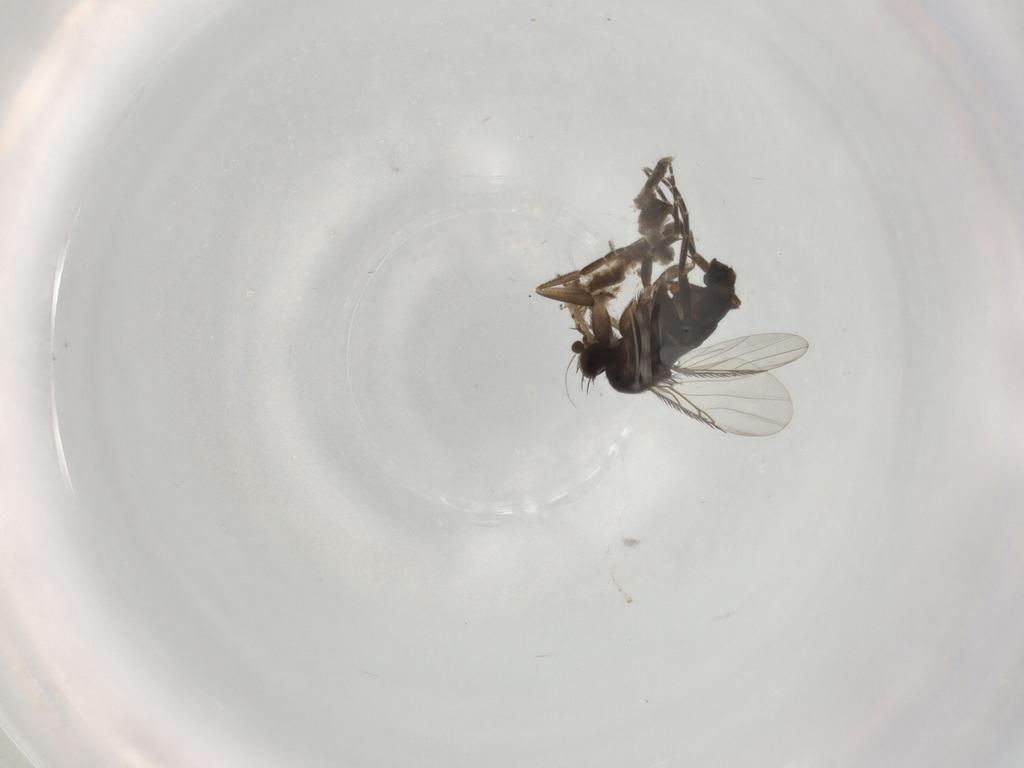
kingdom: Animalia
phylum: Arthropoda
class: Insecta
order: Diptera
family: Phoridae
